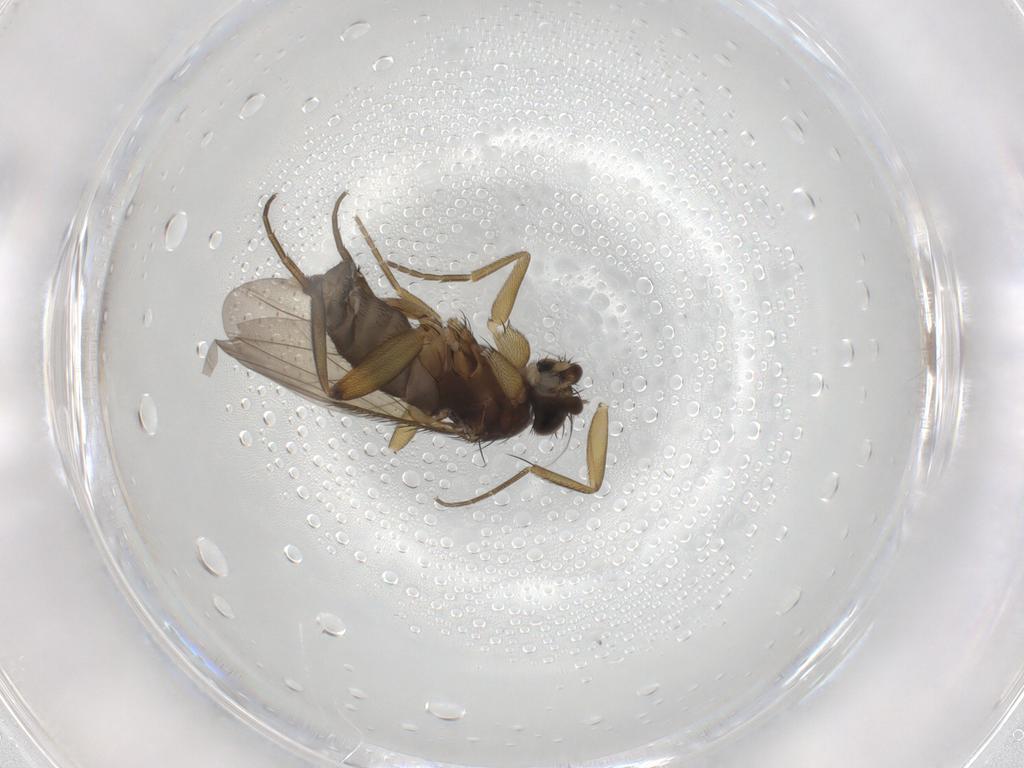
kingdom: Animalia
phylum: Arthropoda
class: Insecta
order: Diptera
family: Phoridae
